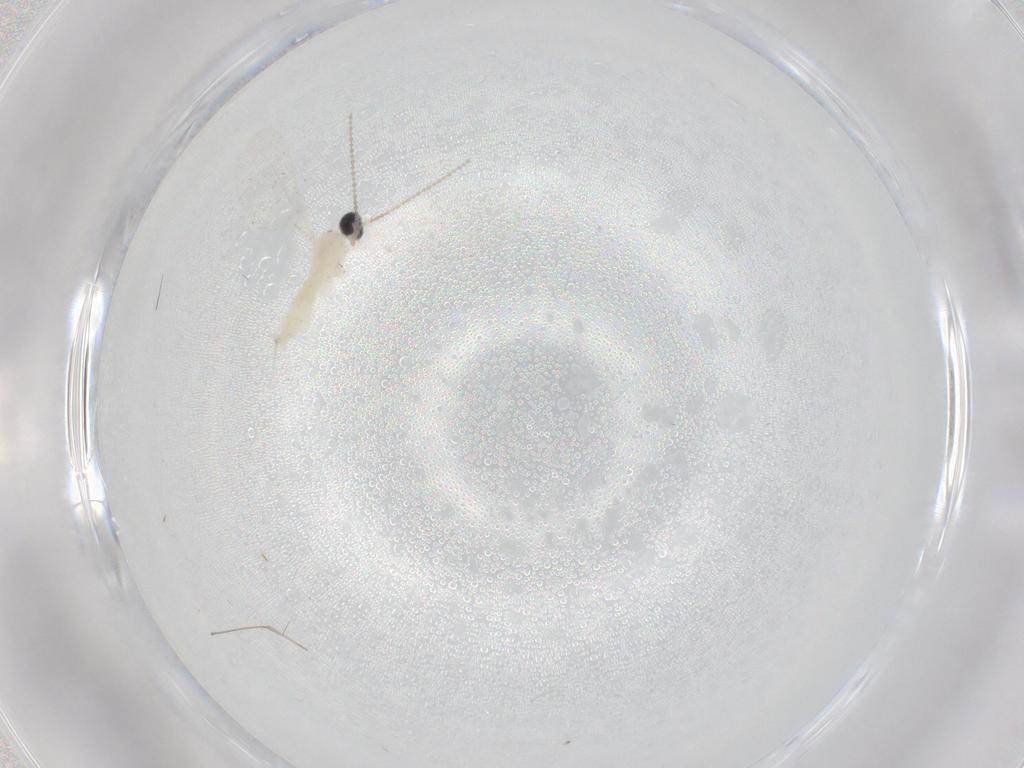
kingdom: Animalia
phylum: Arthropoda
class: Insecta
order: Diptera
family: Cecidomyiidae
